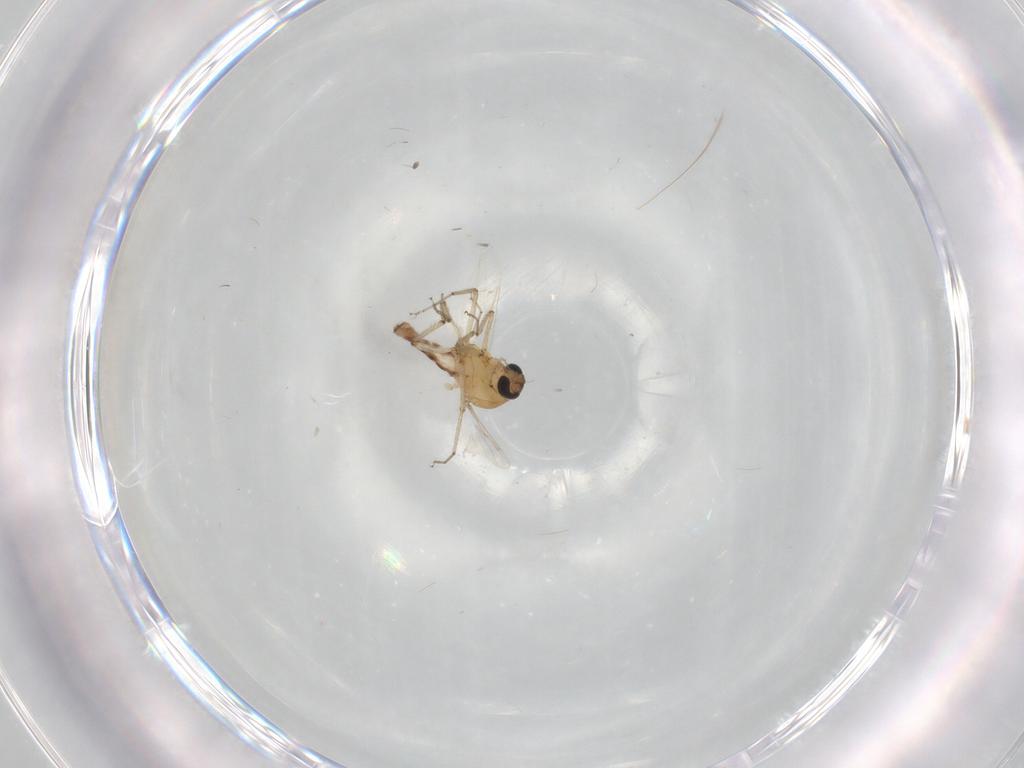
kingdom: Animalia
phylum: Arthropoda
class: Insecta
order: Diptera
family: Ceratopogonidae
